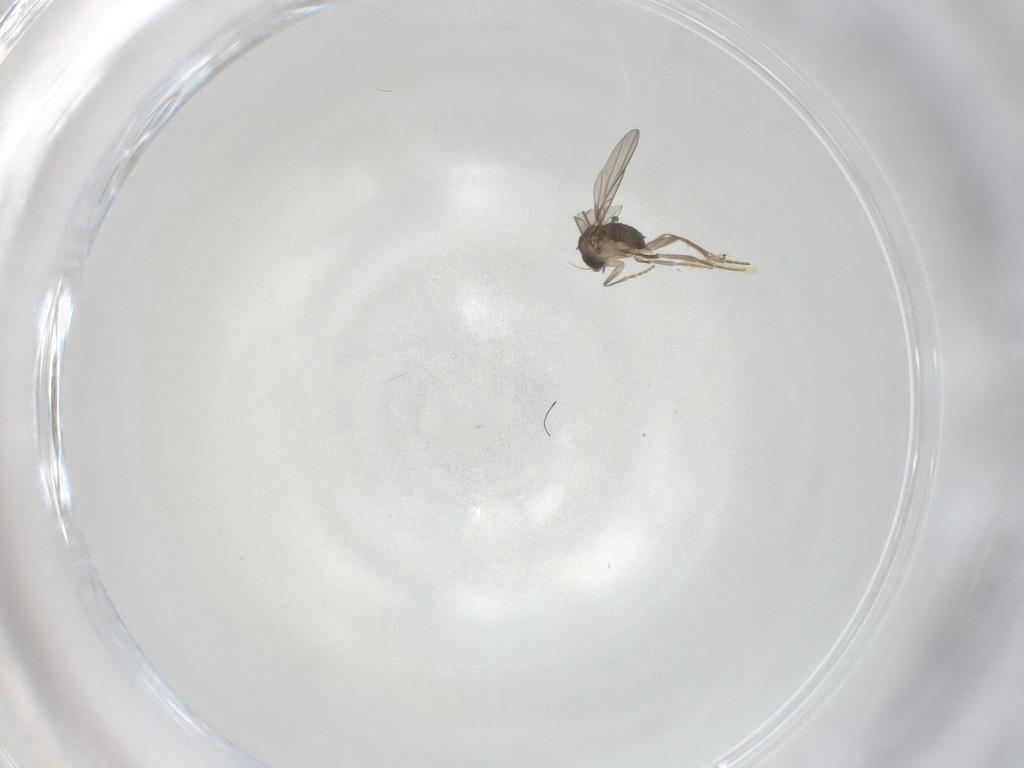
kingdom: Animalia
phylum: Arthropoda
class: Insecta
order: Diptera
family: Chironomidae
